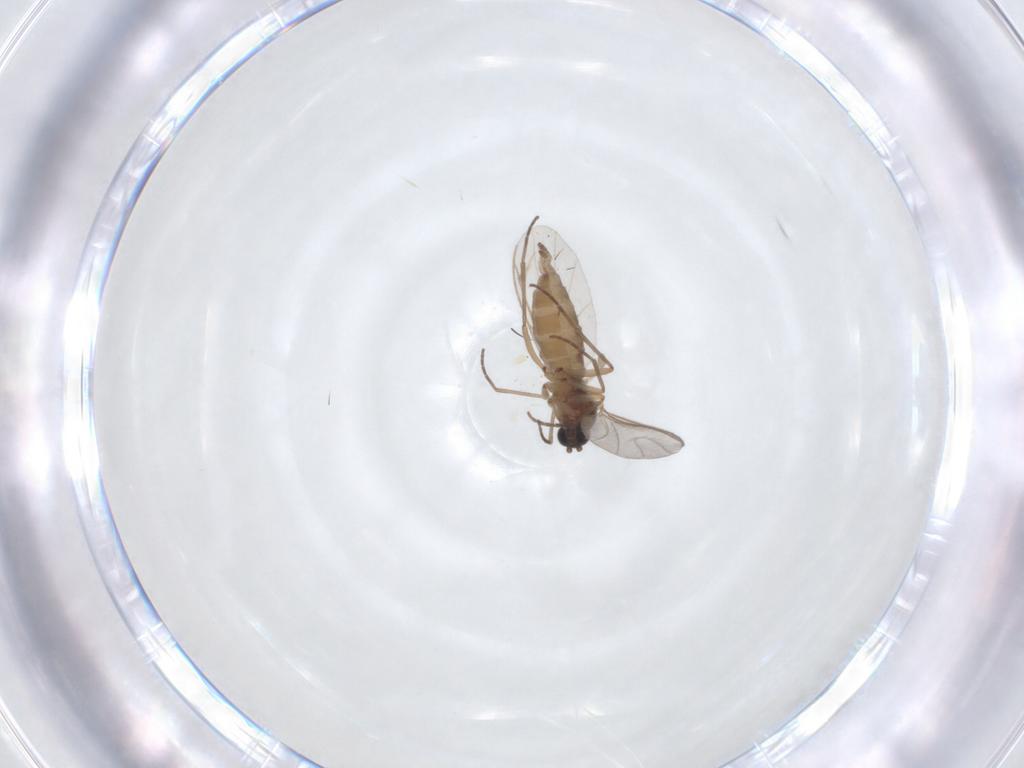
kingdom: Animalia
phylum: Arthropoda
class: Insecta
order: Diptera
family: Sciaridae
